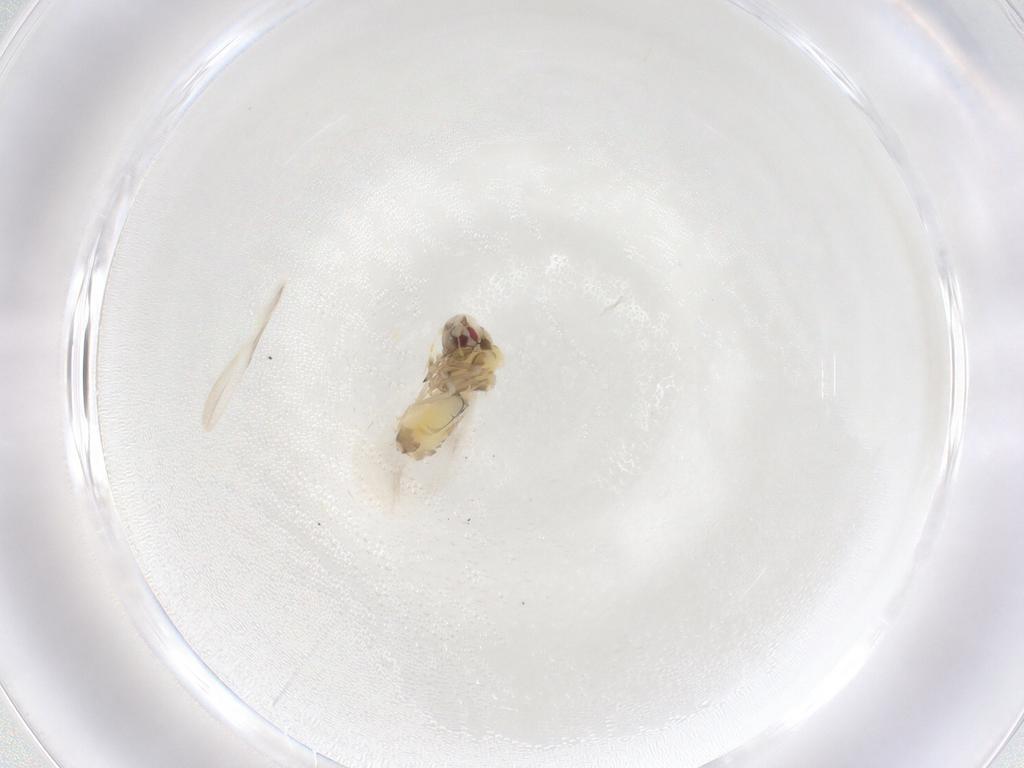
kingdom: Animalia
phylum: Arthropoda
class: Insecta
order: Hemiptera
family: Aleyrodidae
